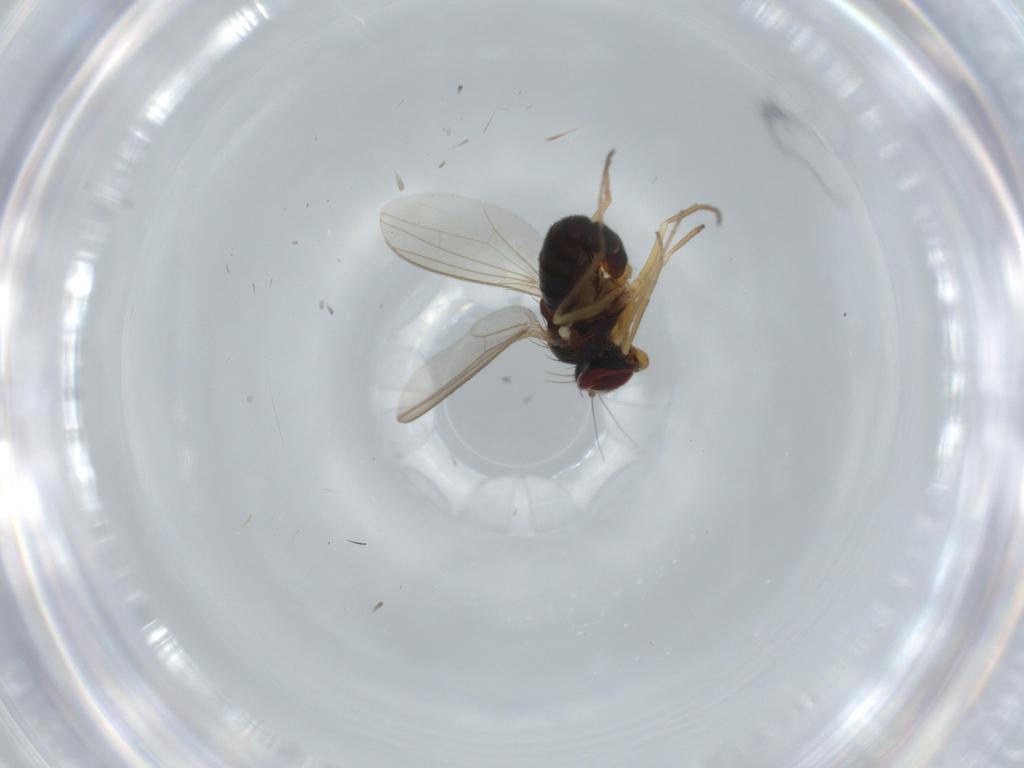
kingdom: Animalia
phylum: Arthropoda
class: Insecta
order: Diptera
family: Dolichopodidae
